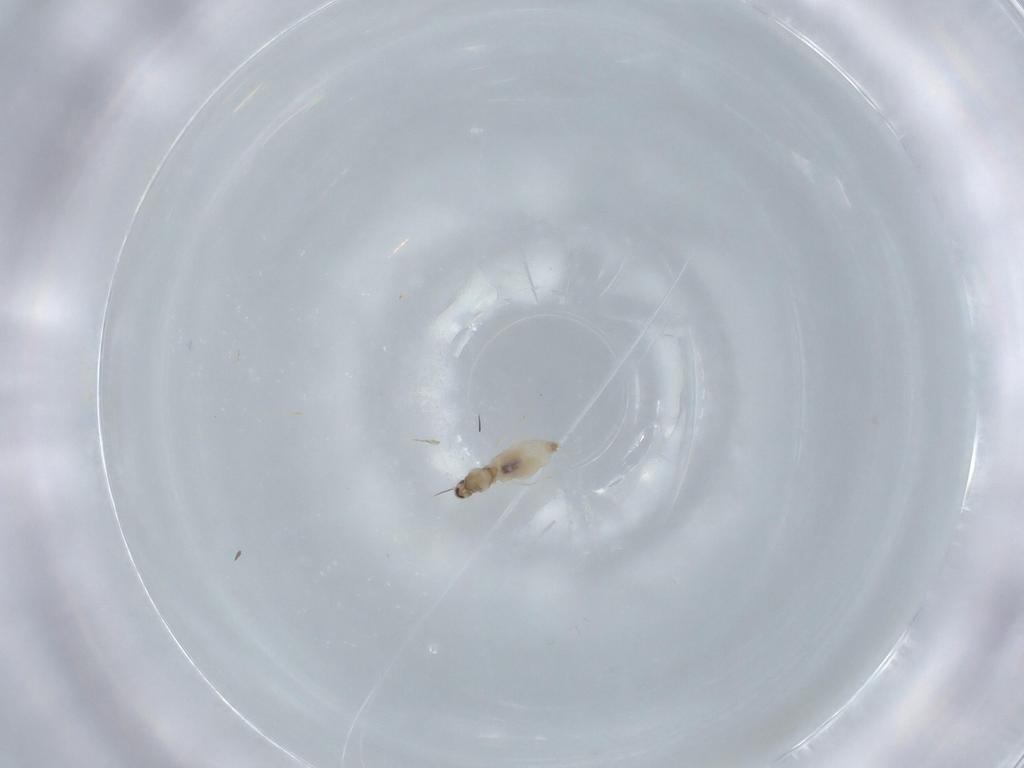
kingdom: Animalia
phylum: Arthropoda
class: Insecta
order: Diptera
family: Cecidomyiidae
